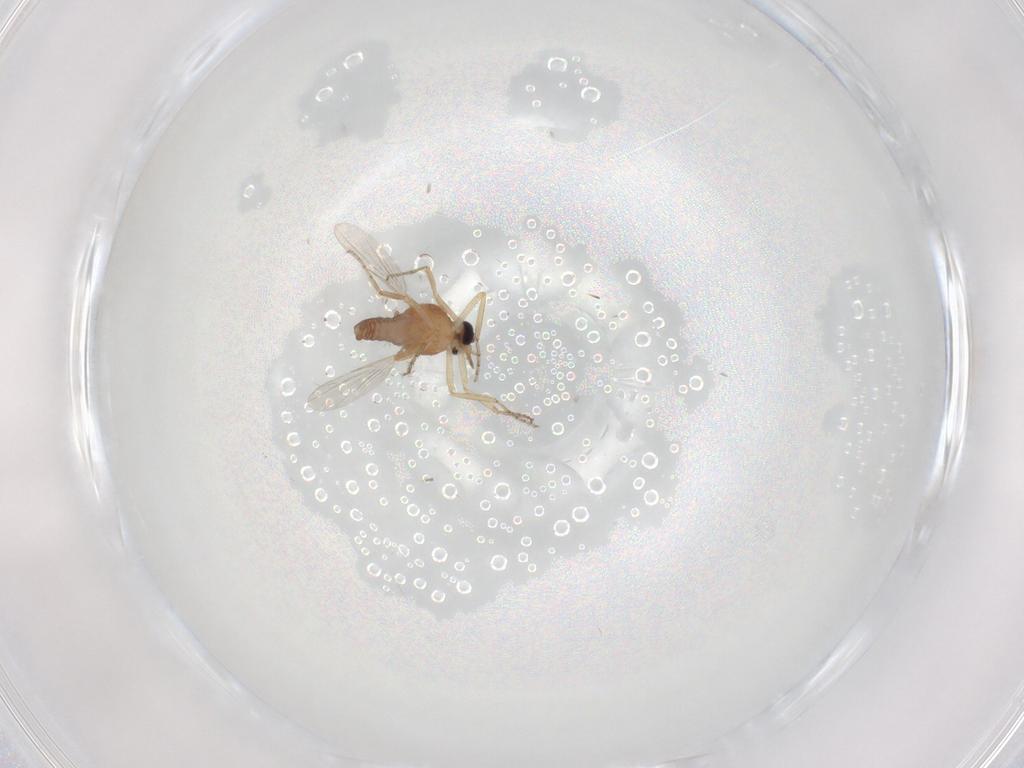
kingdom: Animalia
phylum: Arthropoda
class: Insecta
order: Diptera
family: Ceratopogonidae
